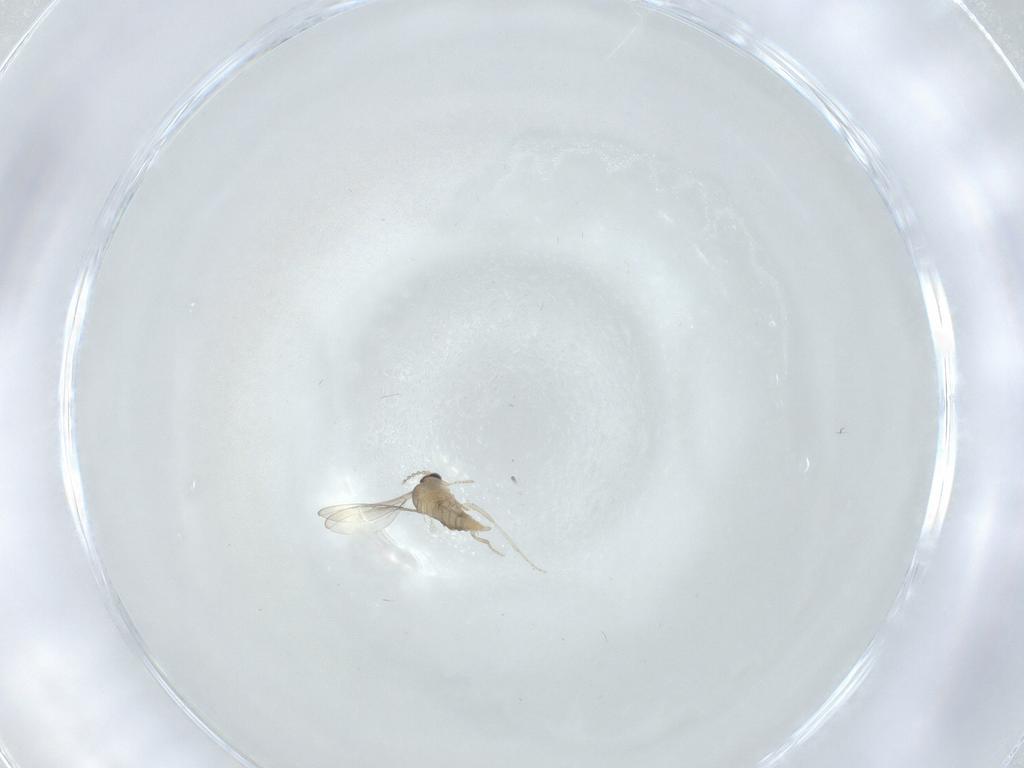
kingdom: Animalia
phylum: Arthropoda
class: Insecta
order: Diptera
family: Cecidomyiidae
